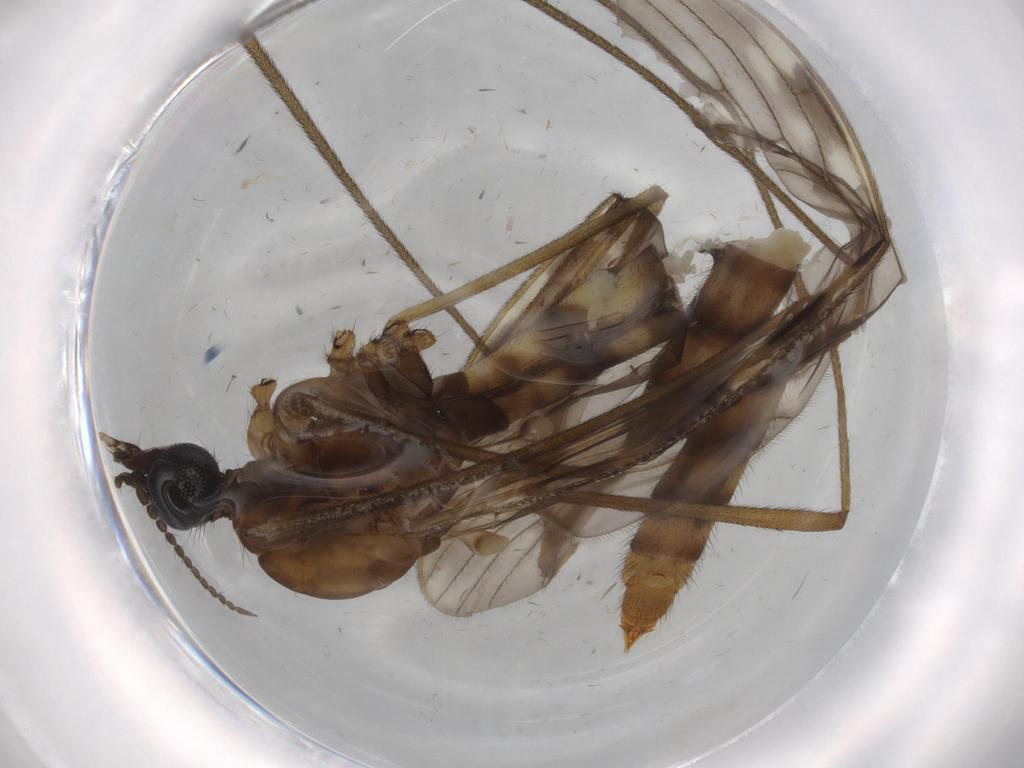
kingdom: Animalia
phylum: Arthropoda
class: Insecta
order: Diptera
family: Limoniidae
